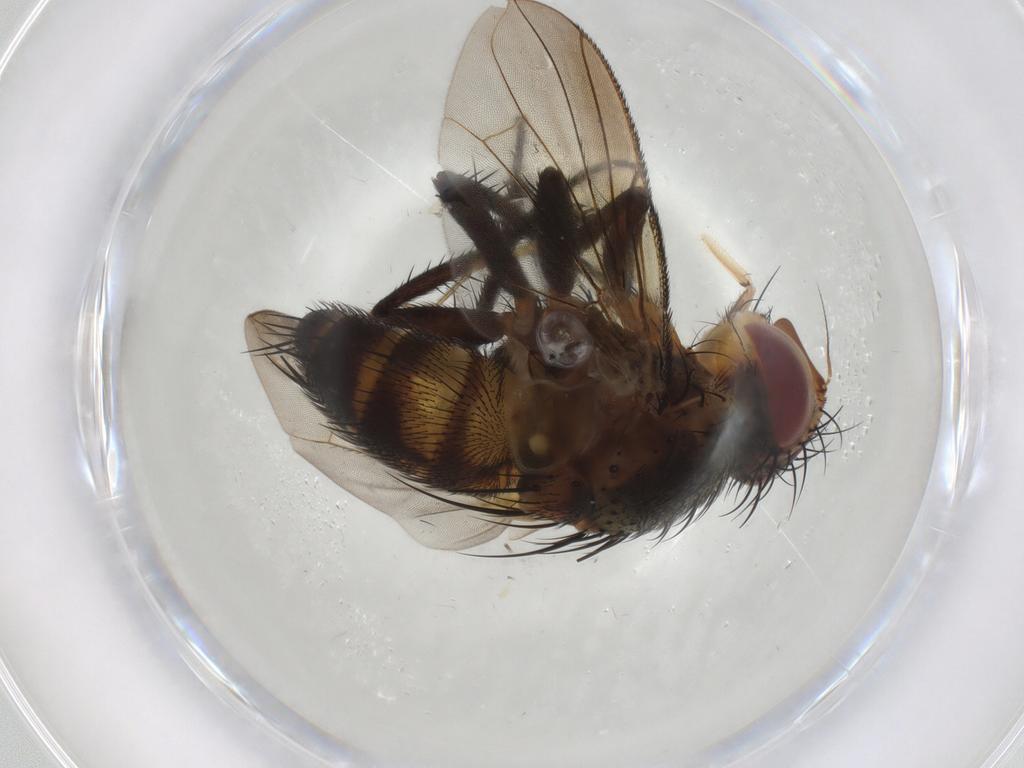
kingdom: Animalia
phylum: Arthropoda
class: Insecta
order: Diptera
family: Ceratopogonidae
